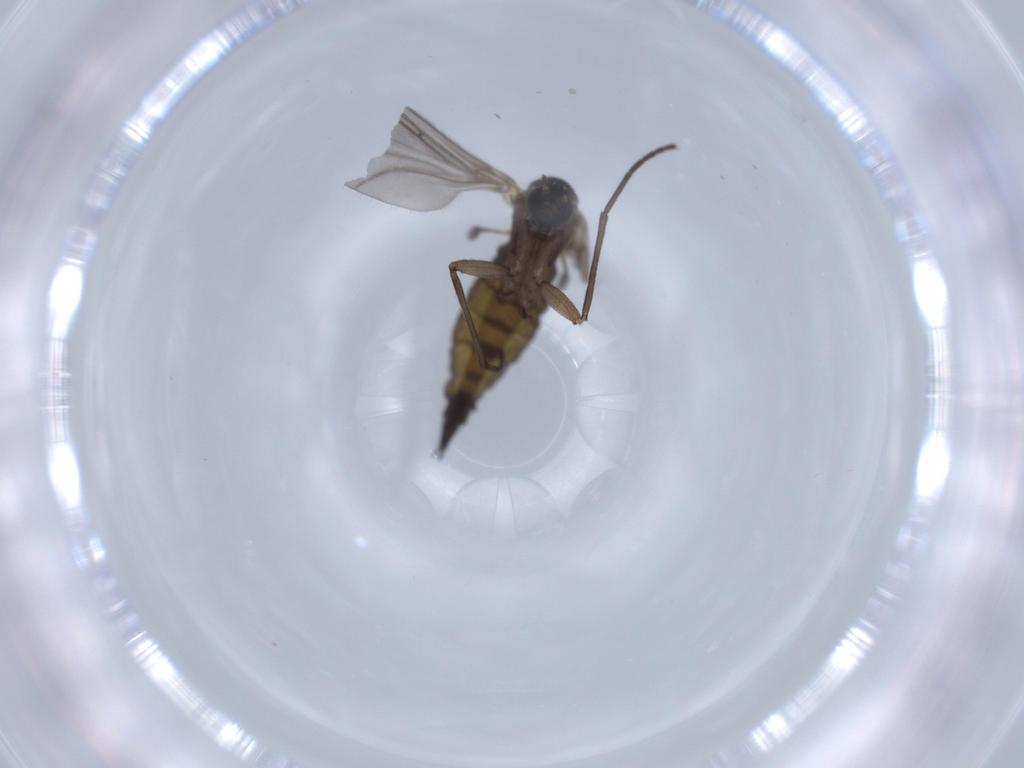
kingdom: Animalia
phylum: Arthropoda
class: Insecta
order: Diptera
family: Sciaridae
